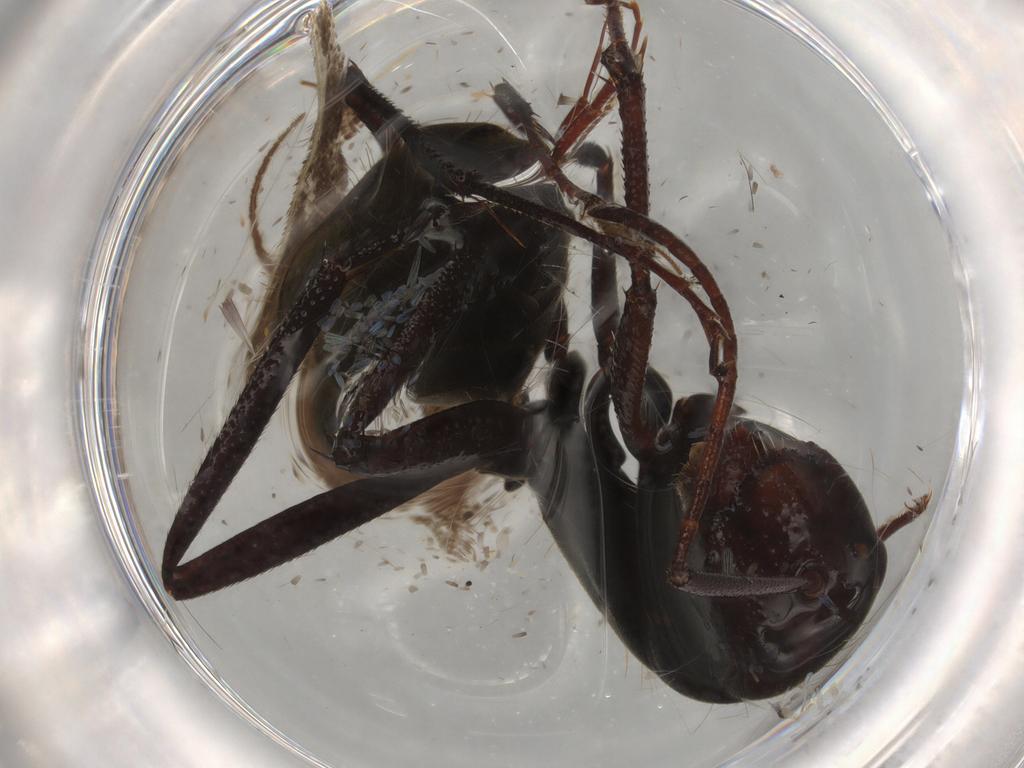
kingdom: Animalia
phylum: Arthropoda
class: Insecta
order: Hymenoptera
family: Formicidae
